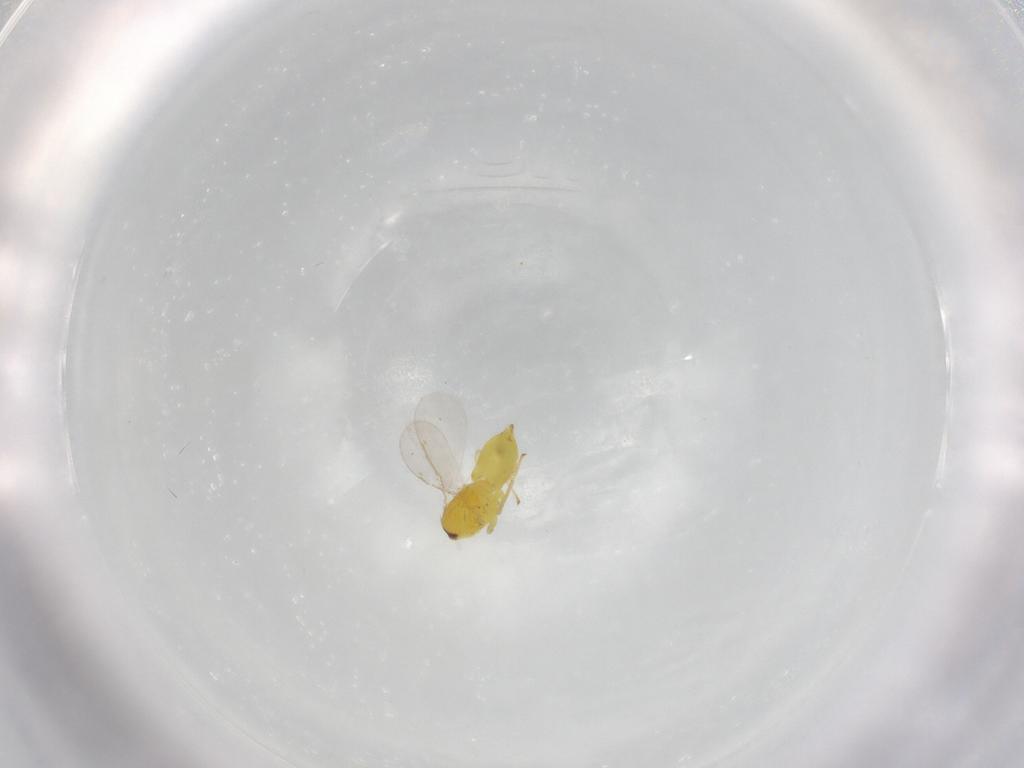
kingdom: Animalia
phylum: Arthropoda
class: Insecta
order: Hymenoptera
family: Aphelinidae
